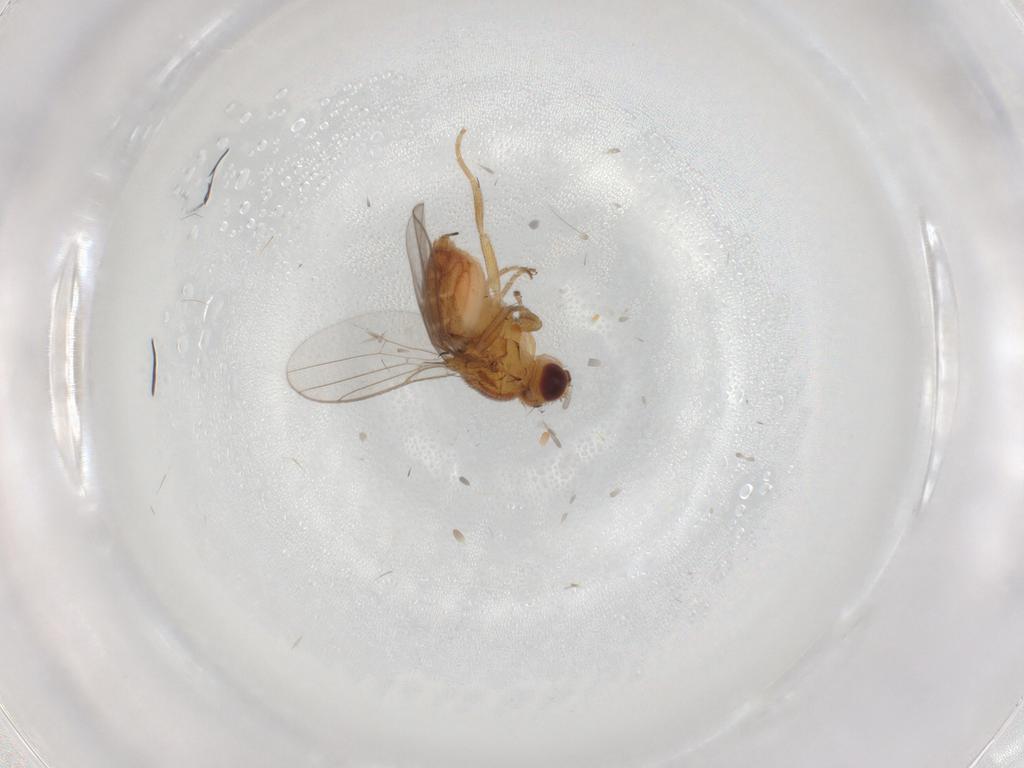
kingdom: Animalia
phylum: Arthropoda
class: Insecta
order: Diptera
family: Chloropidae
